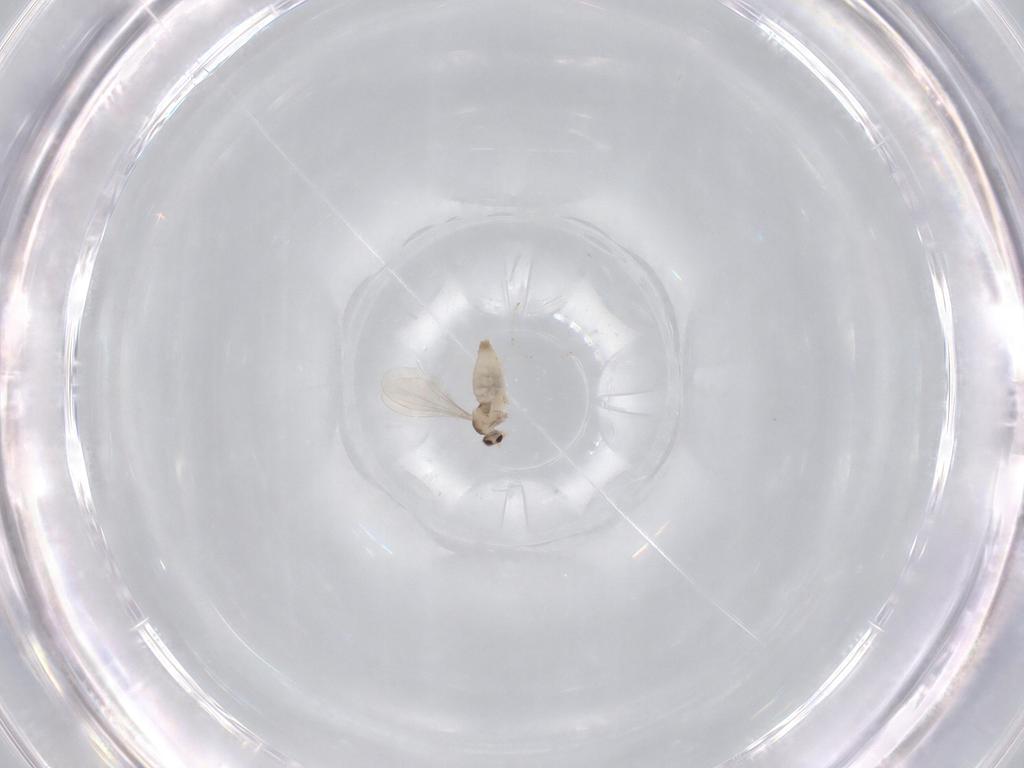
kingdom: Animalia
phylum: Arthropoda
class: Insecta
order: Diptera
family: Cecidomyiidae
